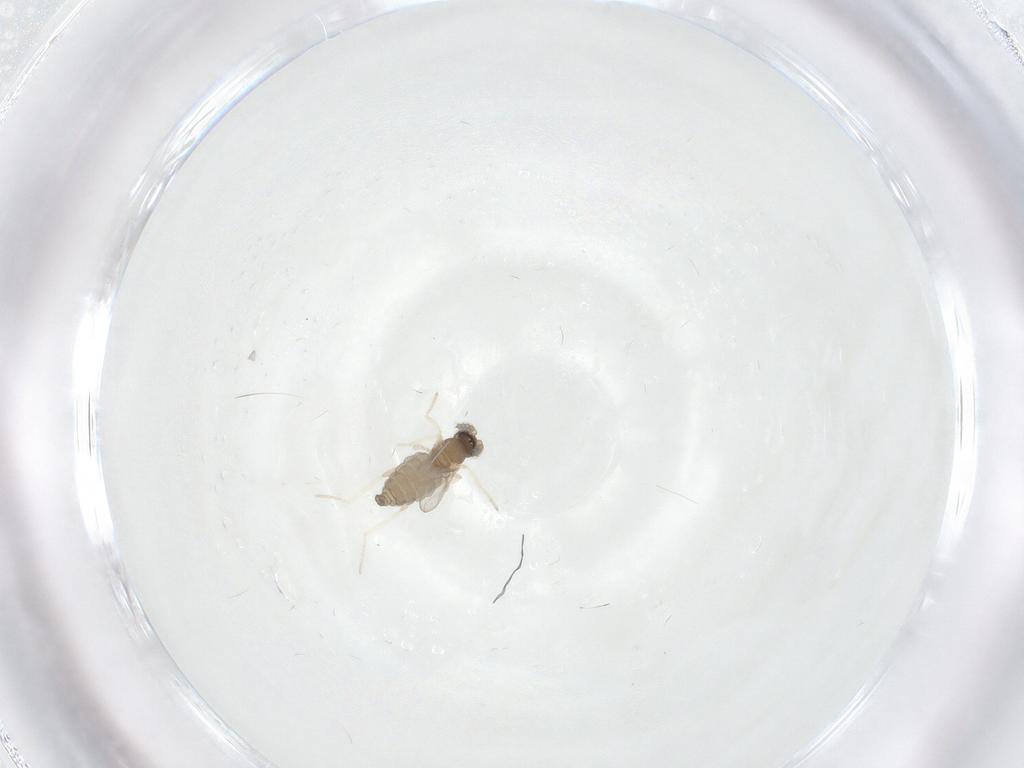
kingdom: Animalia
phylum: Arthropoda
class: Insecta
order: Diptera
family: Cecidomyiidae
